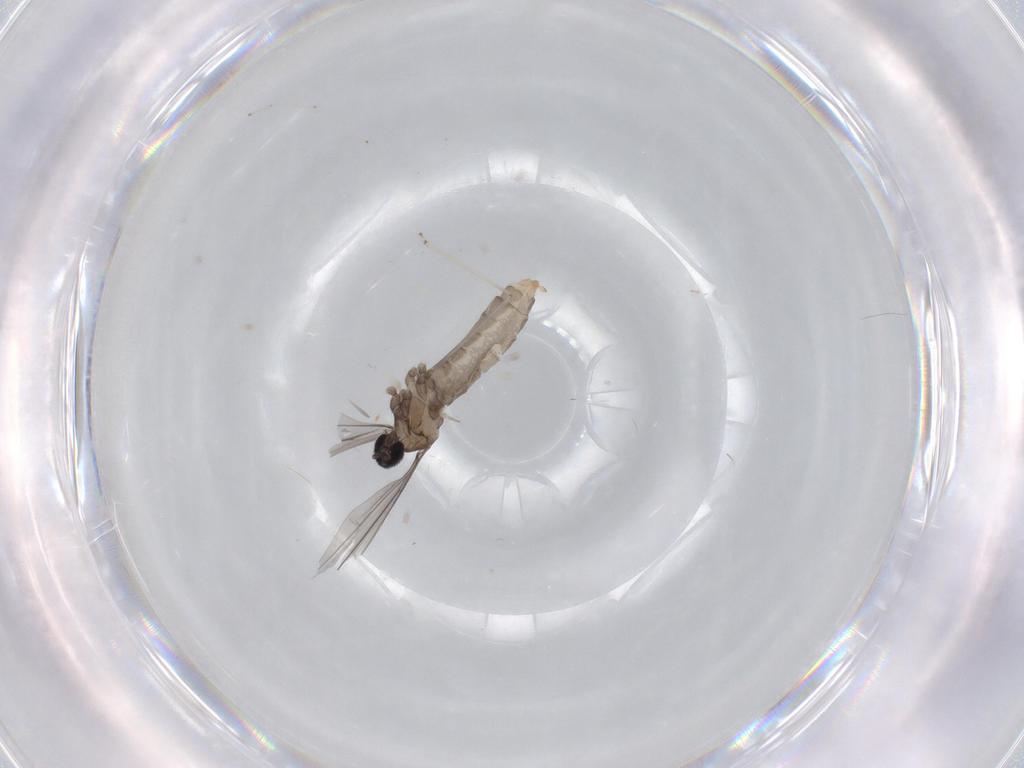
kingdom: Animalia
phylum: Arthropoda
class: Insecta
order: Diptera
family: Cecidomyiidae
